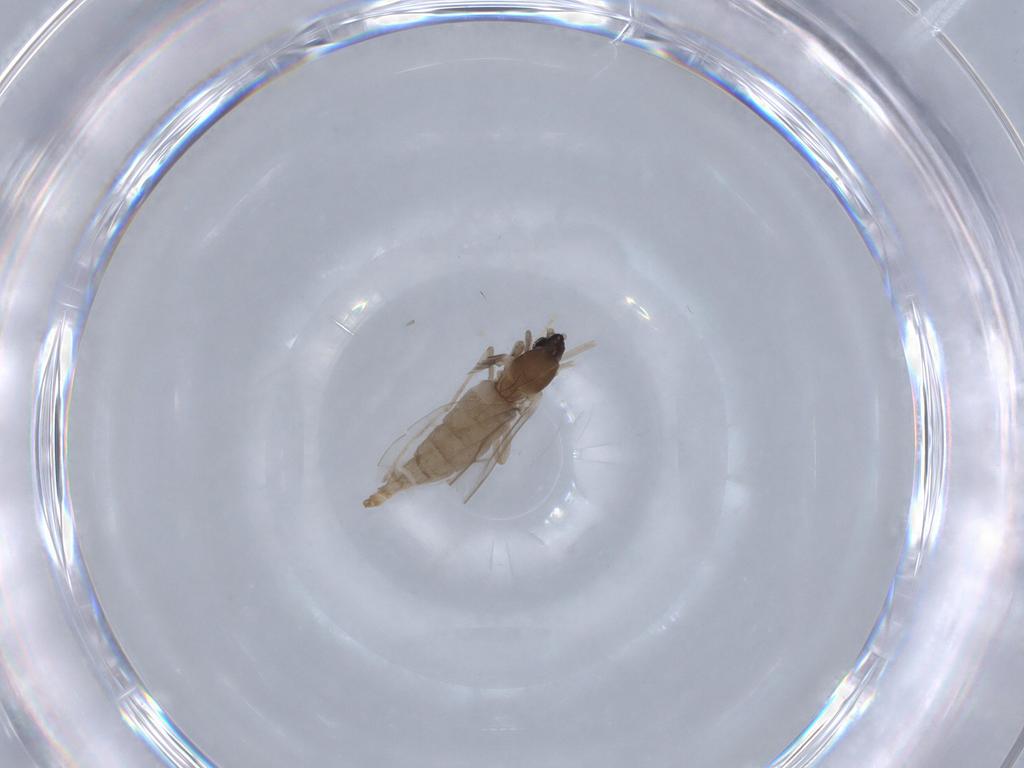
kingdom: Animalia
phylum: Arthropoda
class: Insecta
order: Diptera
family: Cecidomyiidae
